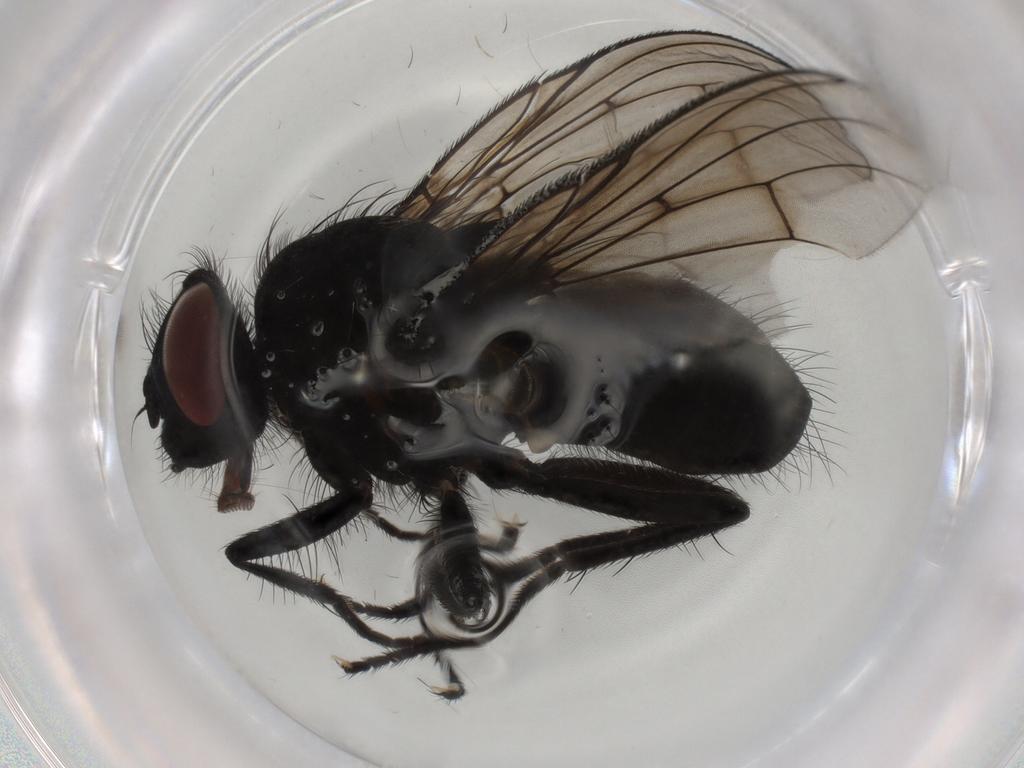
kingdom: Animalia
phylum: Arthropoda
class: Insecta
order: Diptera
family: Muscidae
